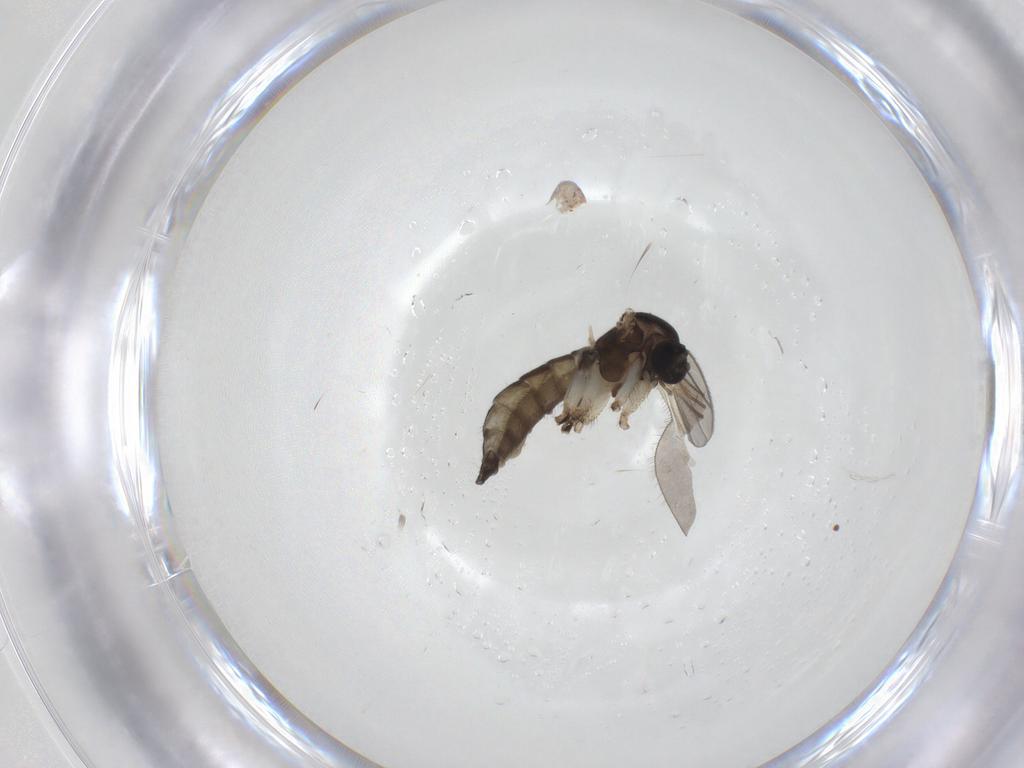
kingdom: Animalia
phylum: Arthropoda
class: Insecta
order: Diptera
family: Sciaridae
